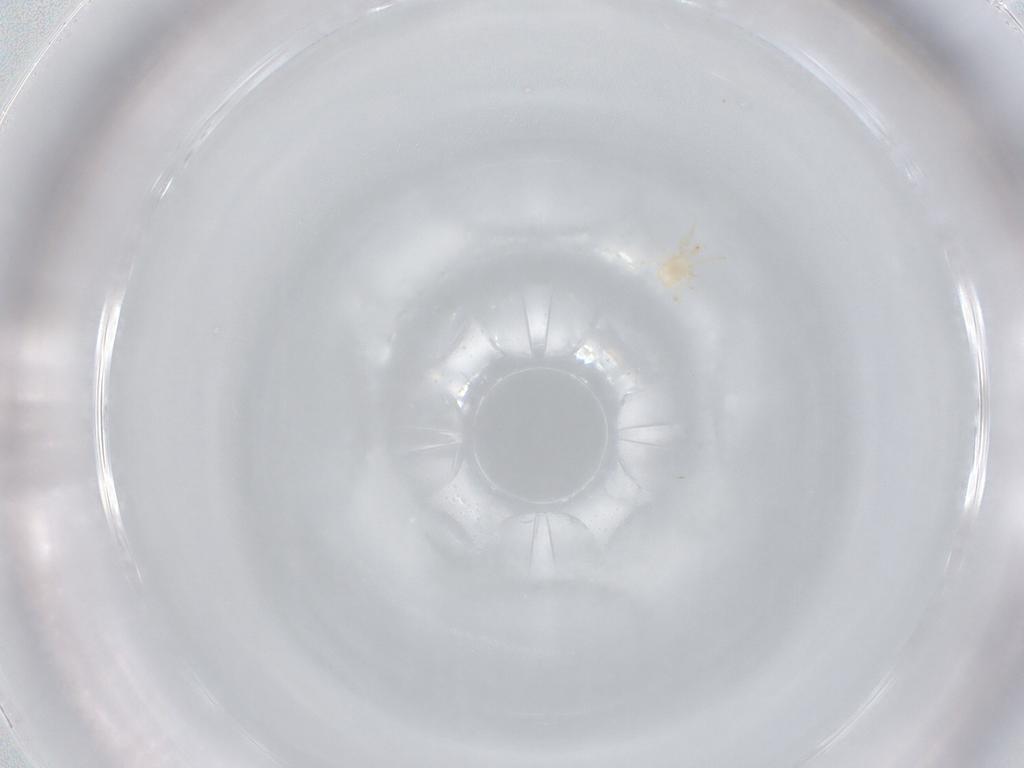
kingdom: Animalia
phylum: Arthropoda
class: Arachnida
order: Mesostigmata
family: Blattisociidae
